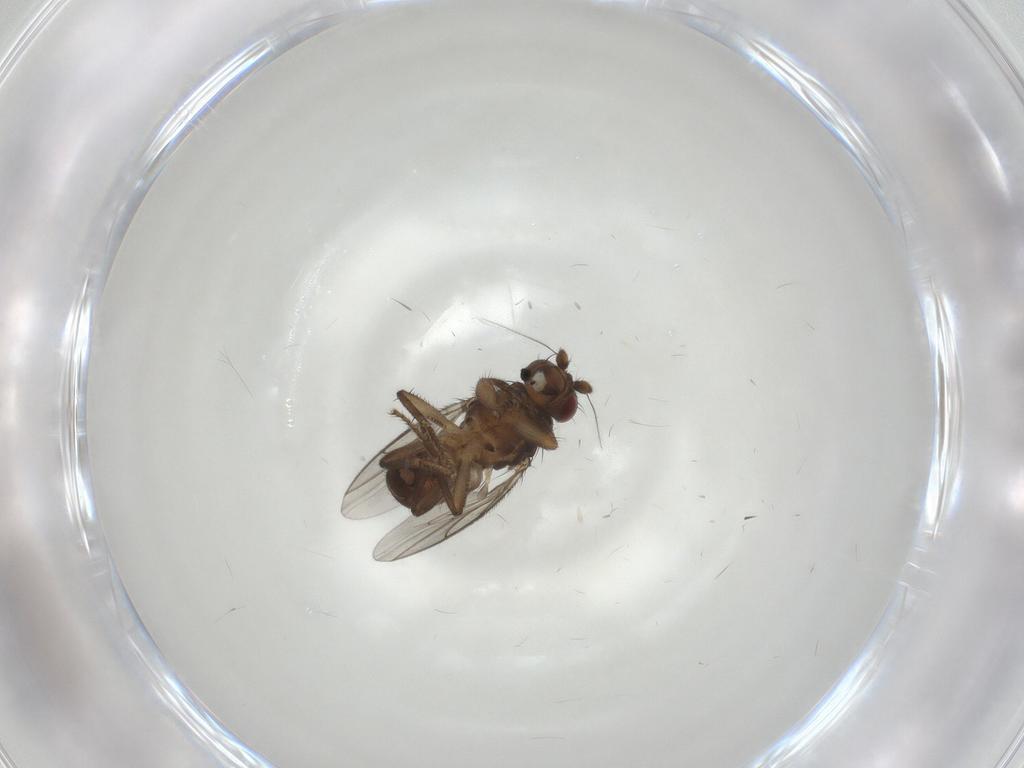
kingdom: Animalia
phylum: Arthropoda
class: Insecta
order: Diptera
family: Sphaeroceridae
